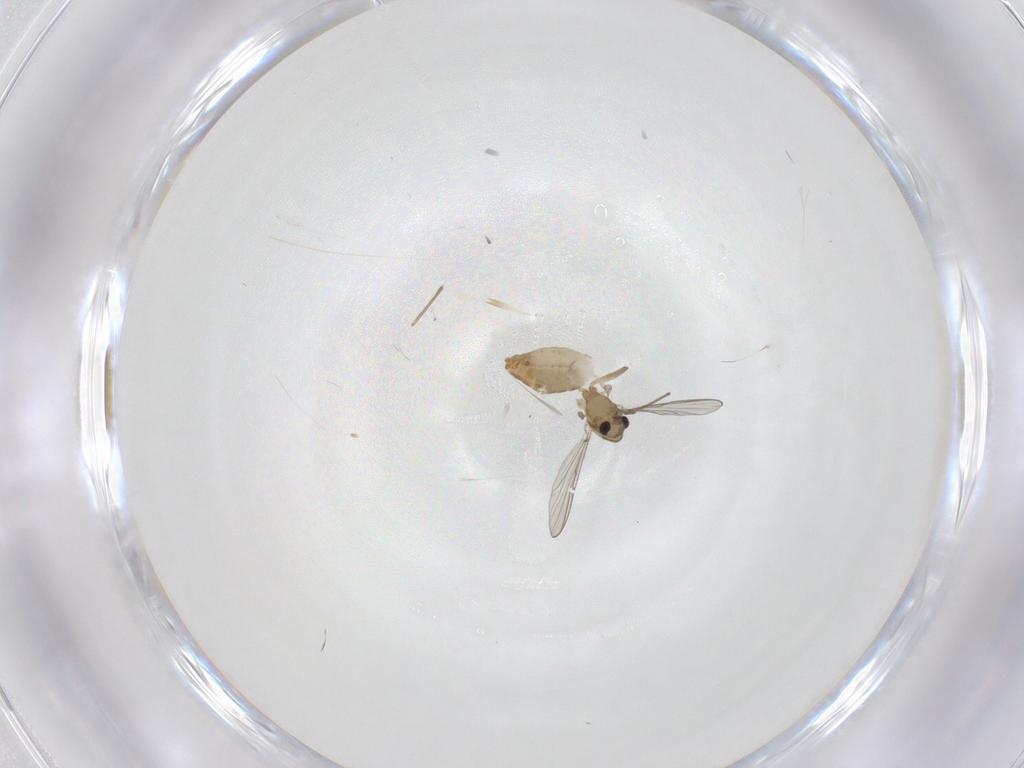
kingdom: Animalia
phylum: Arthropoda
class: Insecta
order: Diptera
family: Chironomidae
